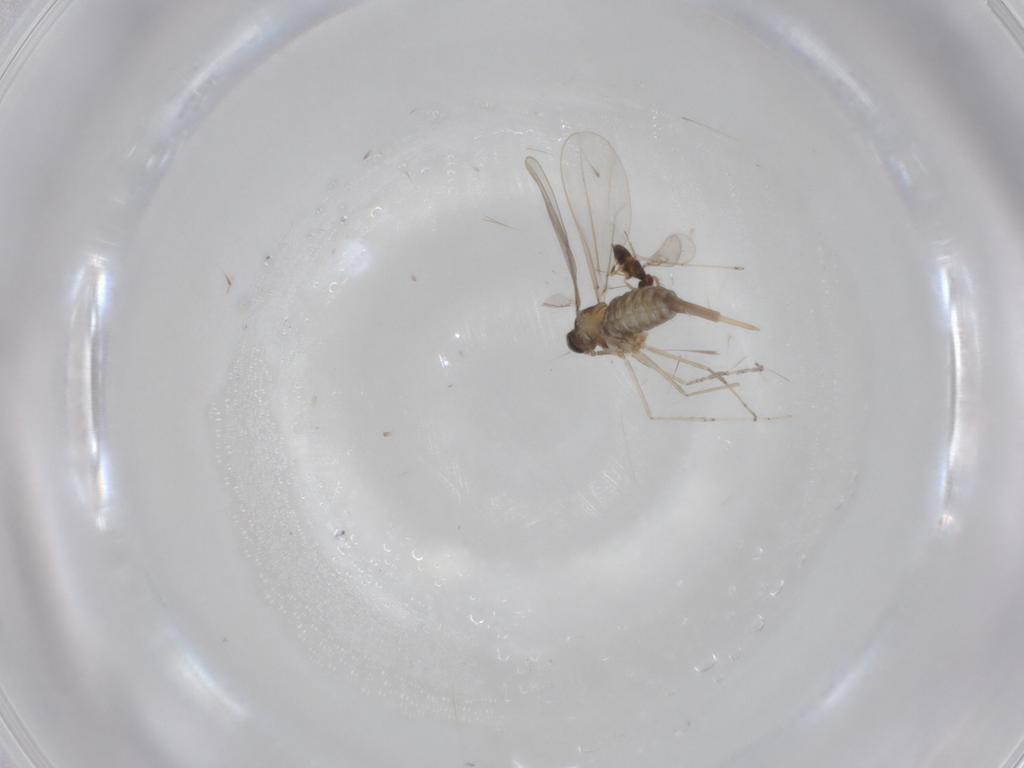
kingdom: Animalia
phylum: Arthropoda
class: Insecta
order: Diptera
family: Cecidomyiidae
